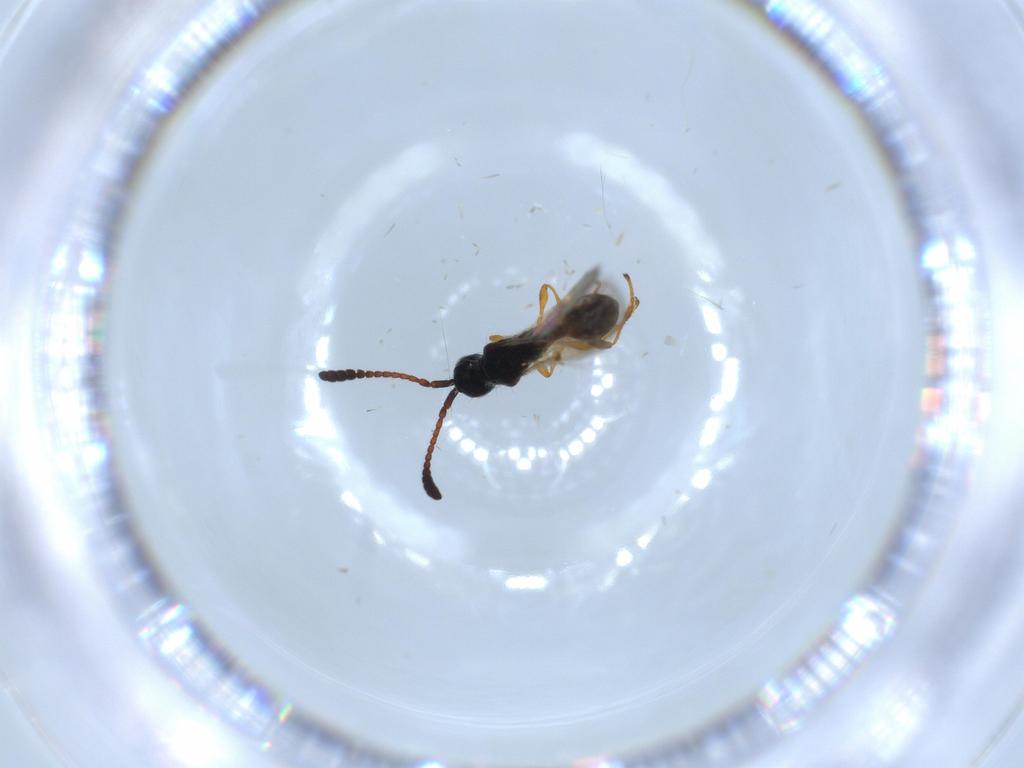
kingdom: Animalia
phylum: Arthropoda
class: Insecta
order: Hymenoptera
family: Diapriidae
